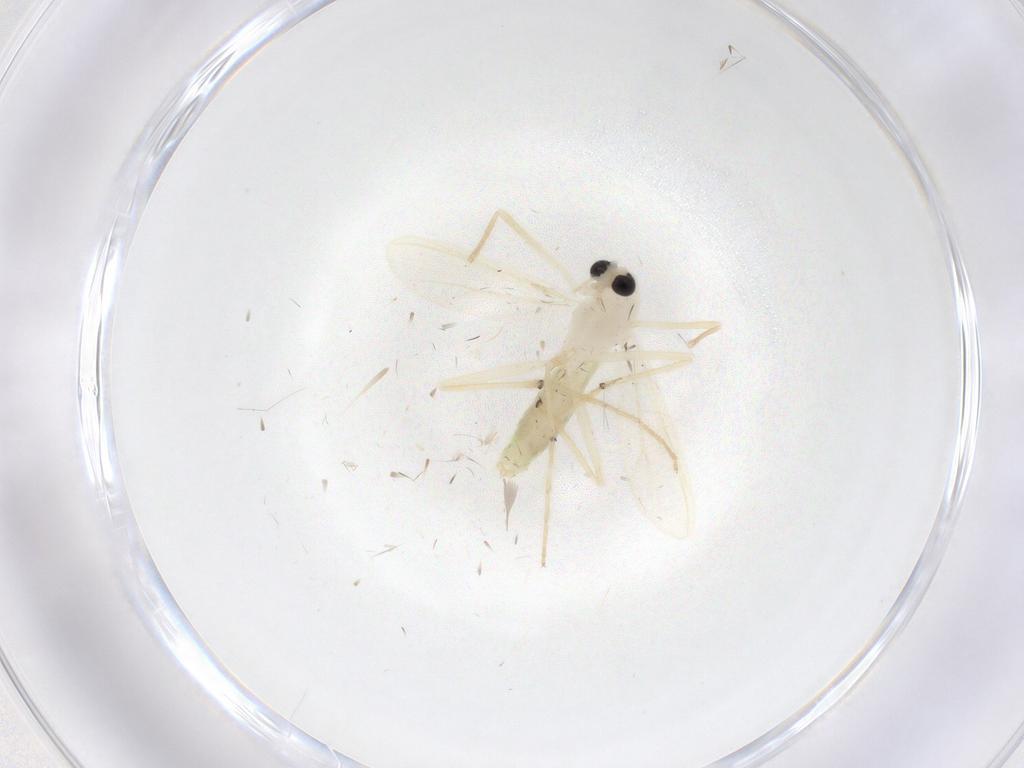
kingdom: Animalia
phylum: Arthropoda
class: Insecta
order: Diptera
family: Chironomidae
